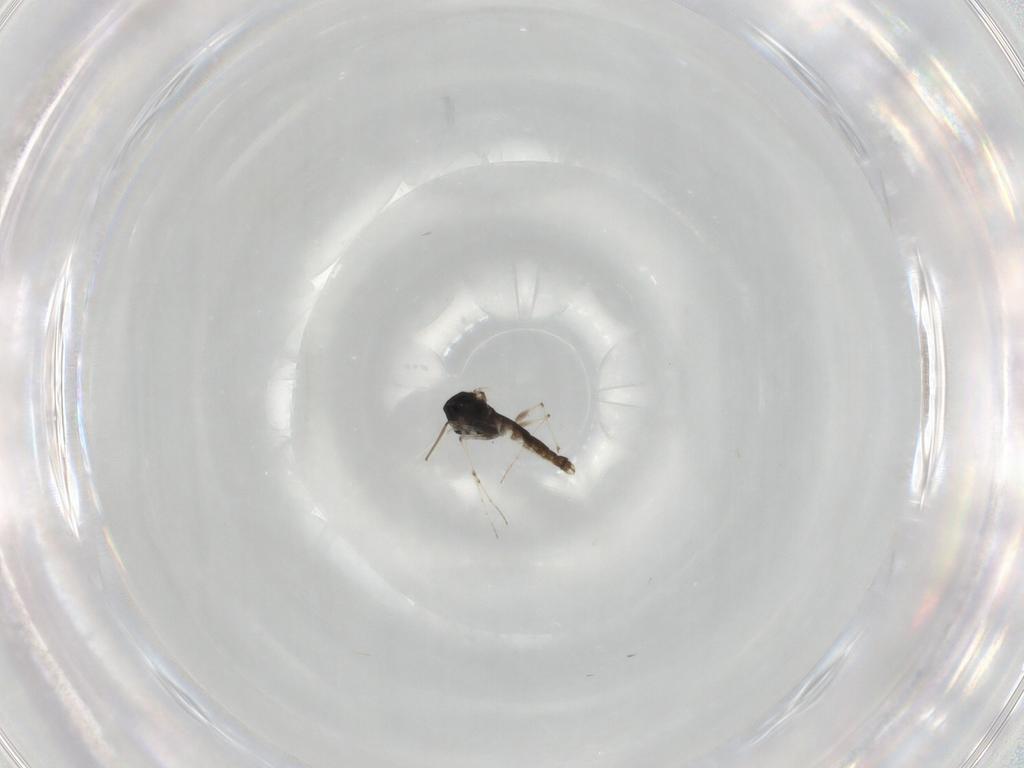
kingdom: Animalia
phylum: Arthropoda
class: Insecta
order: Diptera
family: Chironomidae
